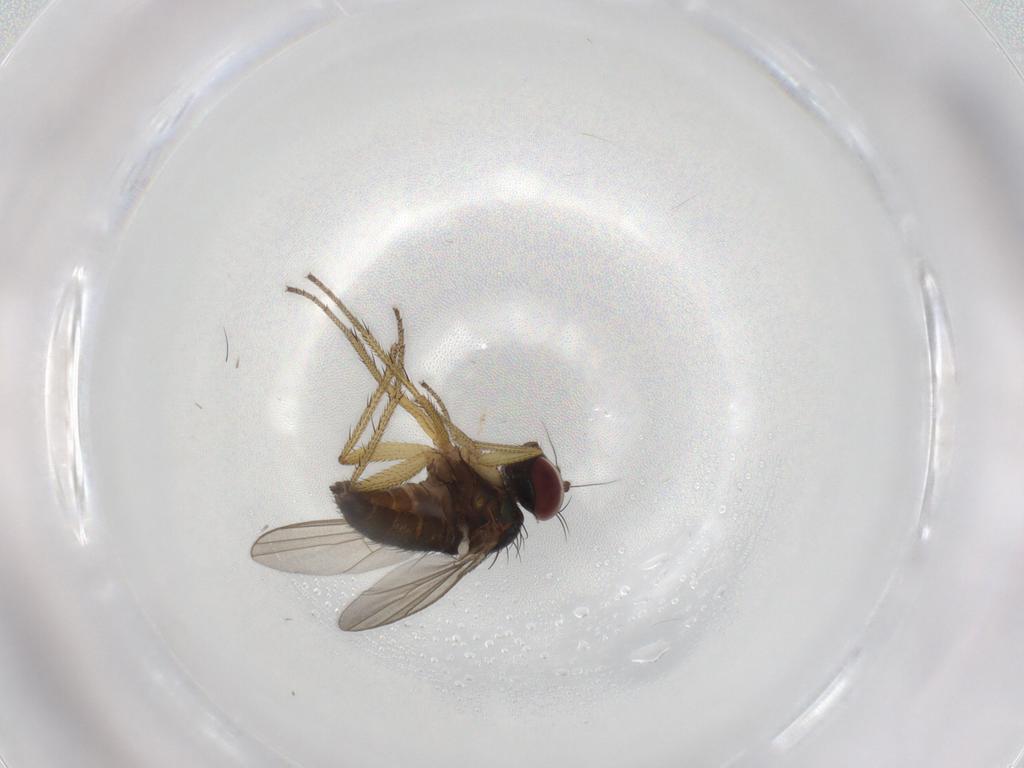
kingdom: Animalia
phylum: Arthropoda
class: Insecta
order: Diptera
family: Dolichopodidae
